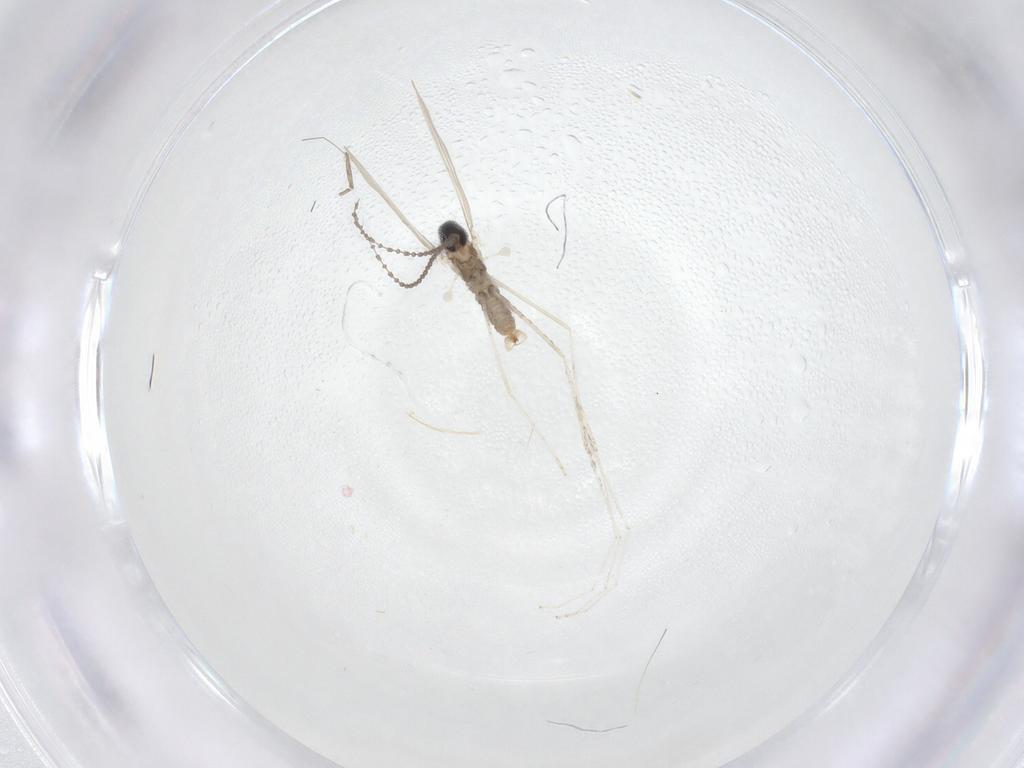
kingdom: Animalia
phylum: Arthropoda
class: Insecta
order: Diptera
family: Cecidomyiidae
